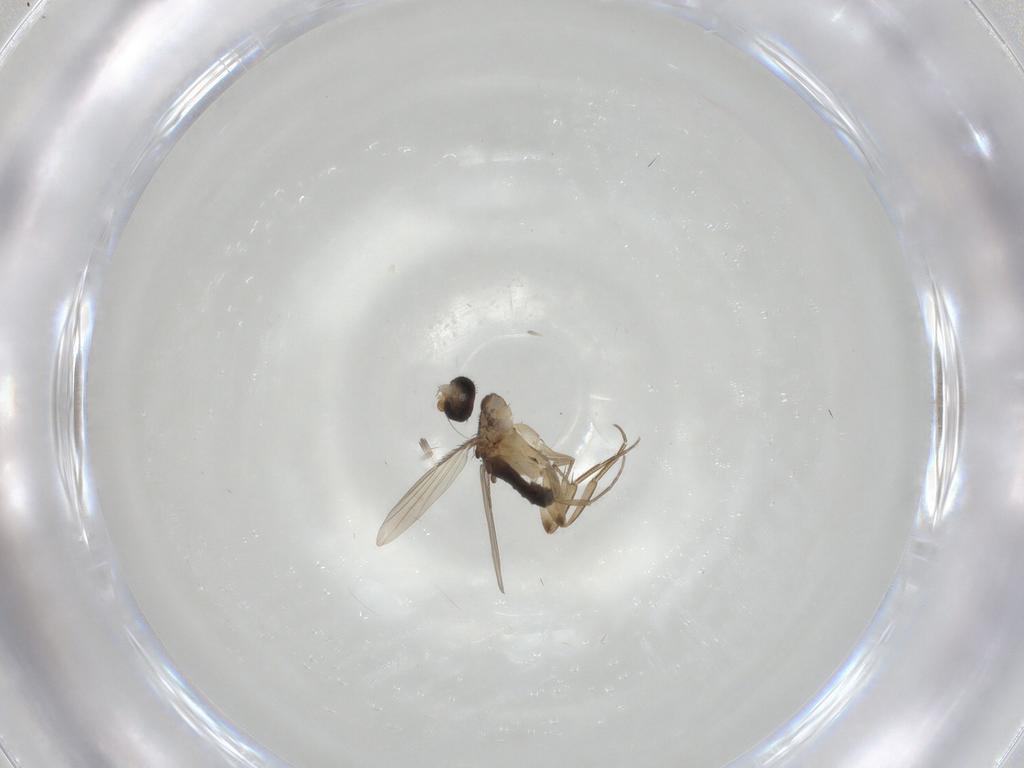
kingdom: Animalia
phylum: Arthropoda
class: Insecta
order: Diptera
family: Phoridae
